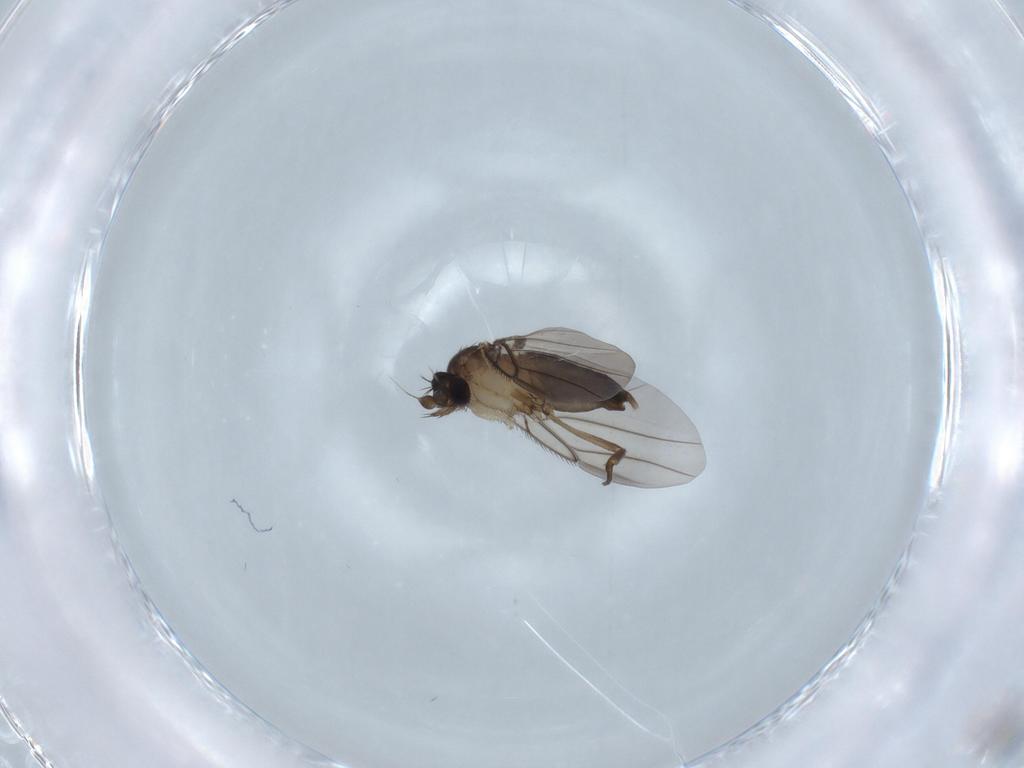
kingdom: Animalia
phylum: Arthropoda
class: Insecta
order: Diptera
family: Phoridae
